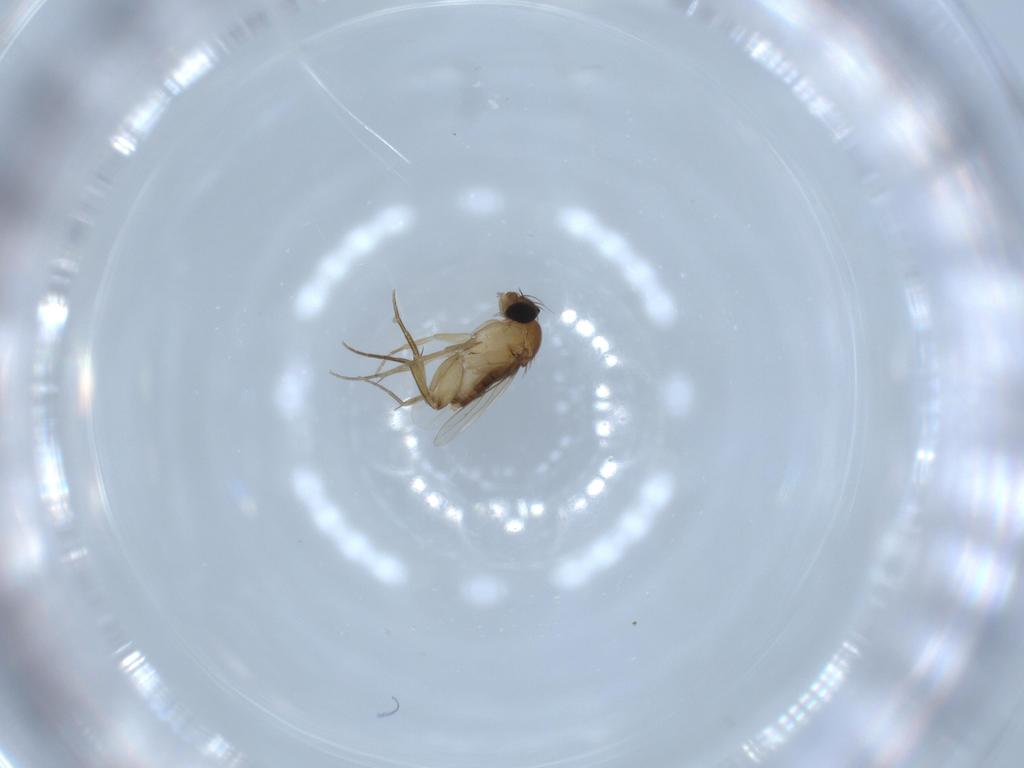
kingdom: Animalia
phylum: Arthropoda
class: Insecta
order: Diptera
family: Phoridae
